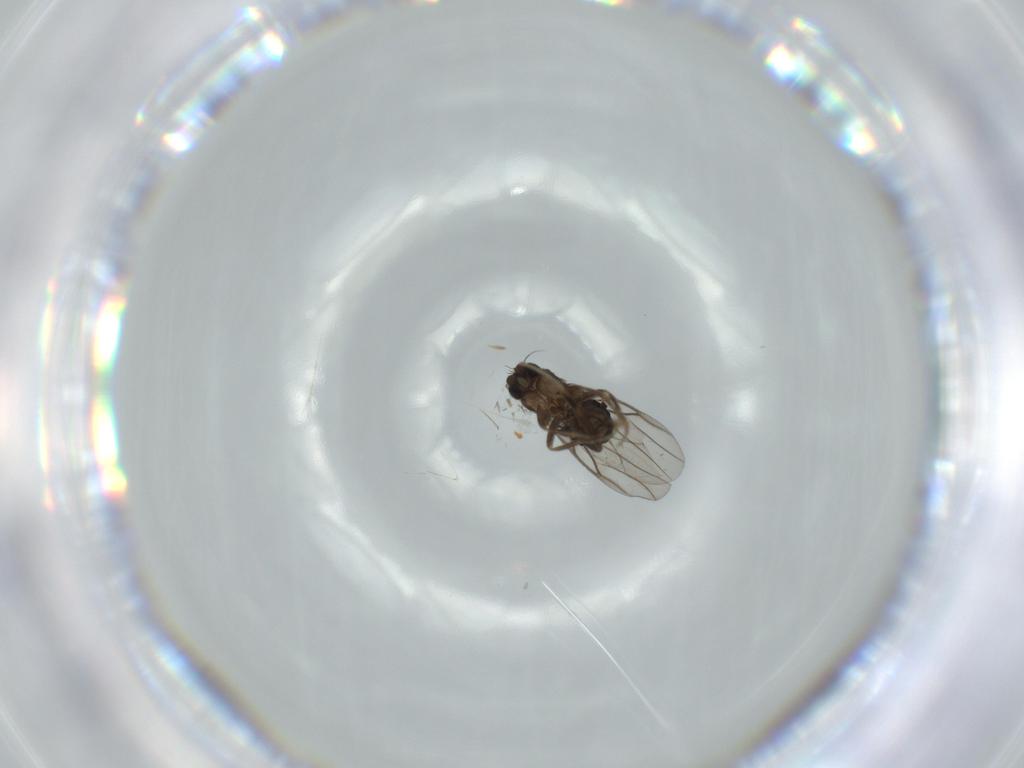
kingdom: Animalia
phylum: Arthropoda
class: Insecta
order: Diptera
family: Phoridae
